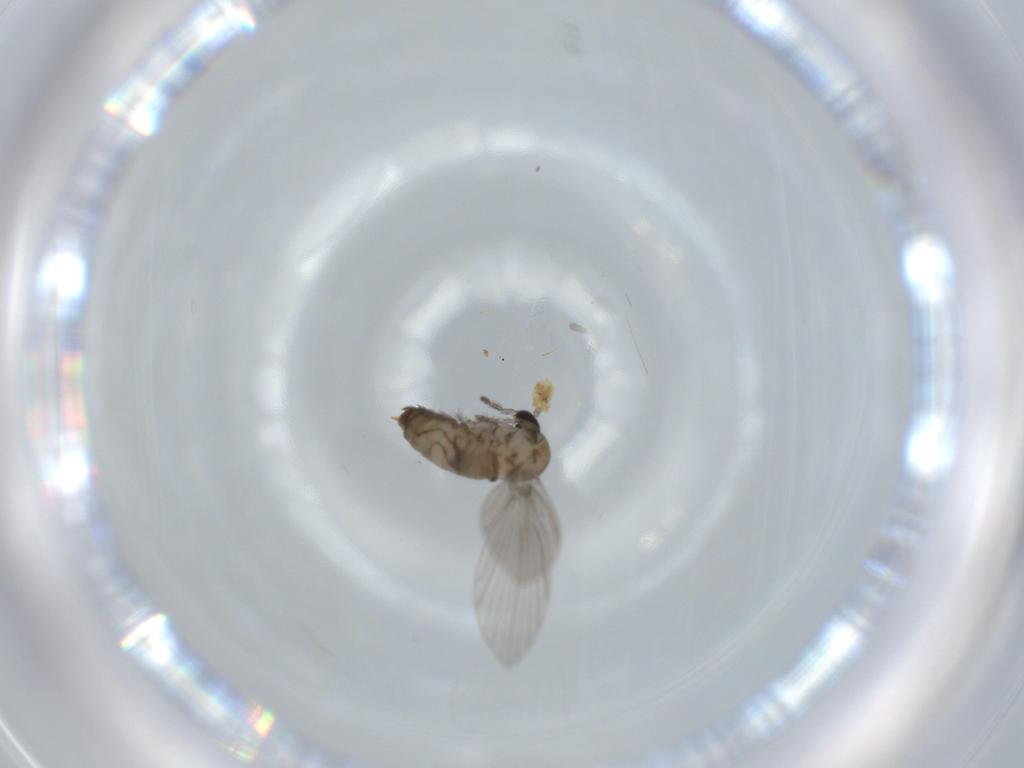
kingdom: Animalia
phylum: Arthropoda
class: Insecta
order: Diptera
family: Psychodidae
